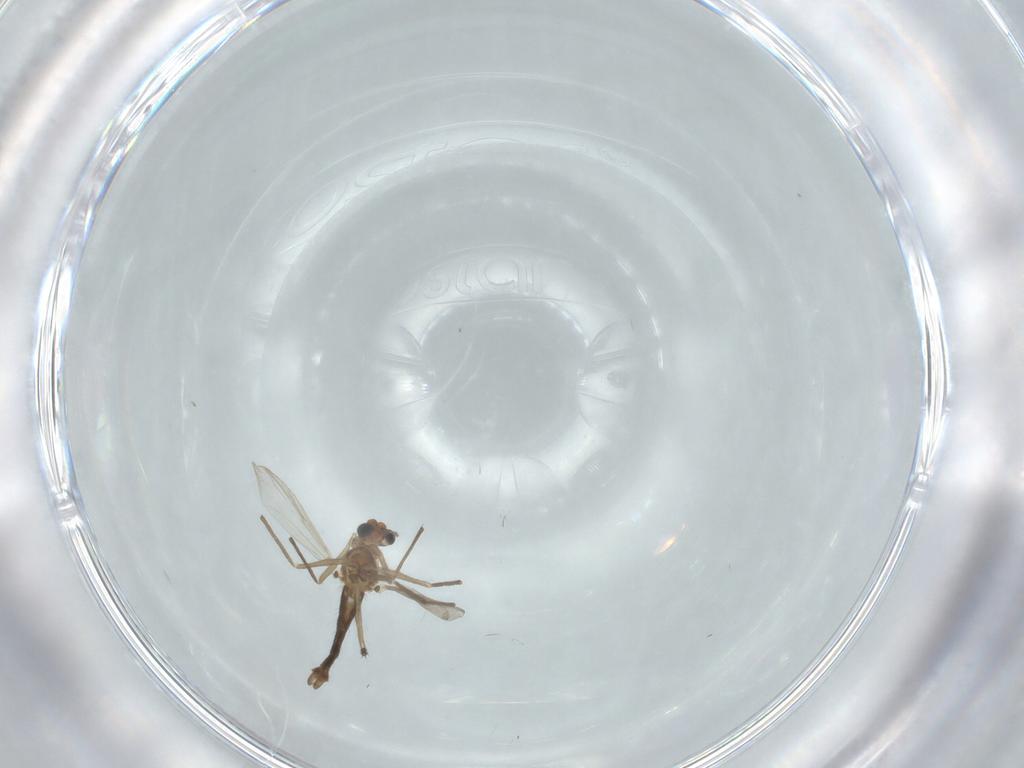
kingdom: Animalia
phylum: Arthropoda
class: Insecta
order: Diptera
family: Chironomidae
